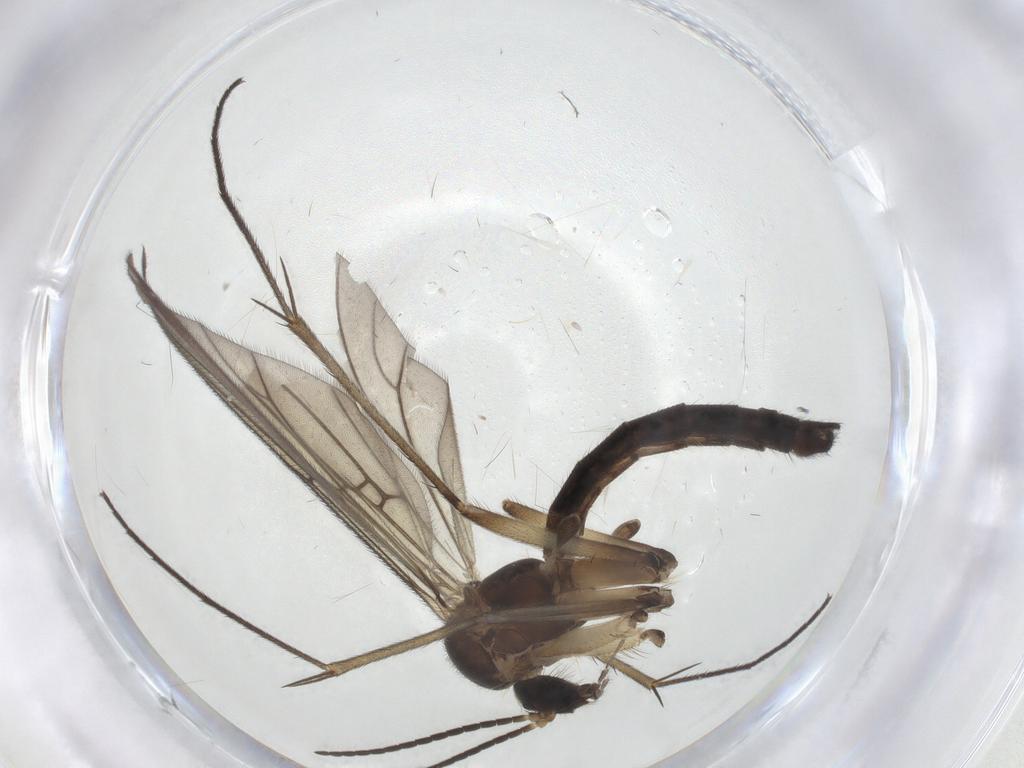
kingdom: Animalia
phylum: Arthropoda
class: Insecta
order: Diptera
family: Mycetophilidae
